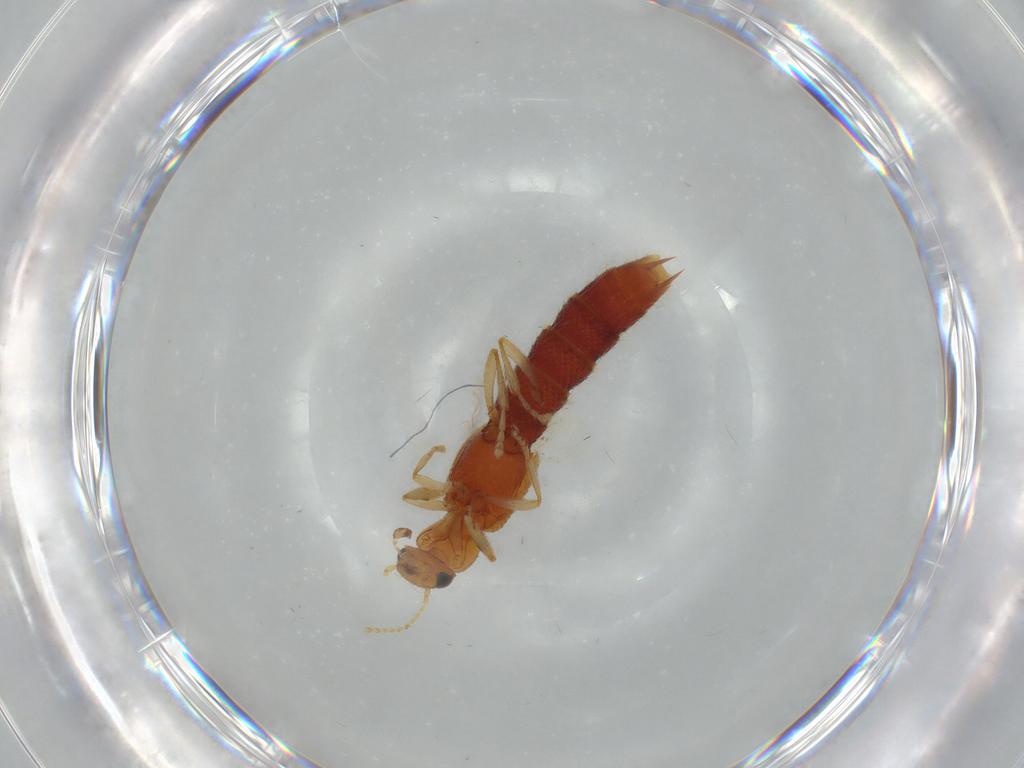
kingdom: Animalia
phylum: Arthropoda
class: Insecta
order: Coleoptera
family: Staphylinidae
